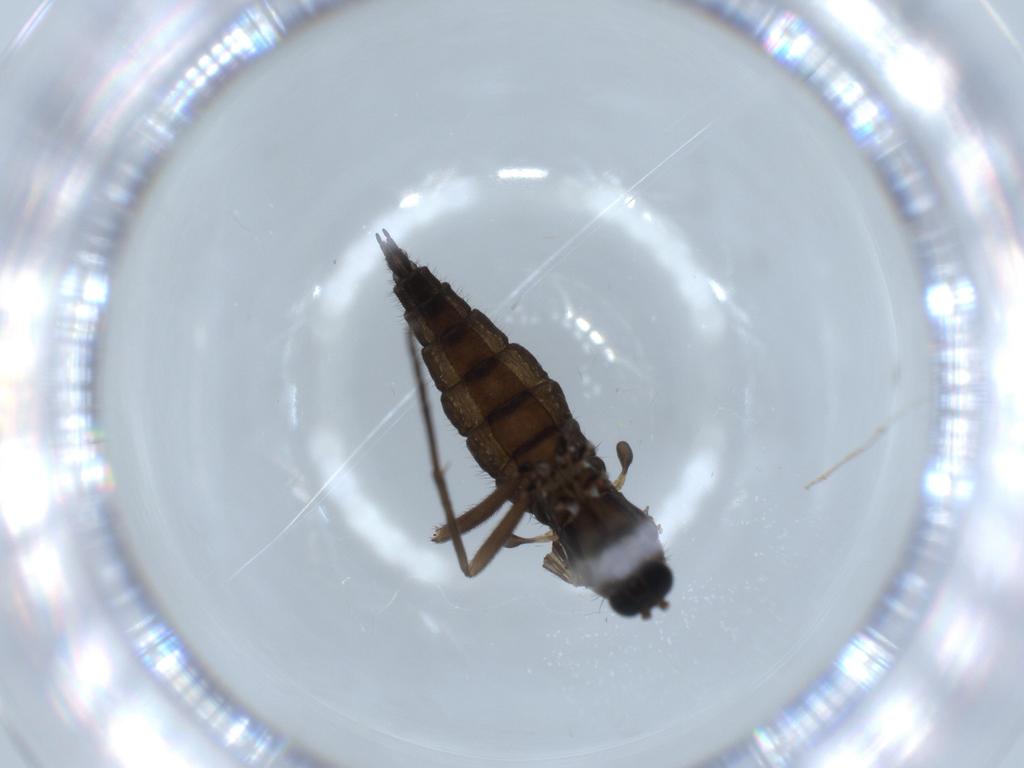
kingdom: Animalia
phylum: Arthropoda
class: Insecta
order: Diptera
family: Sciaridae
